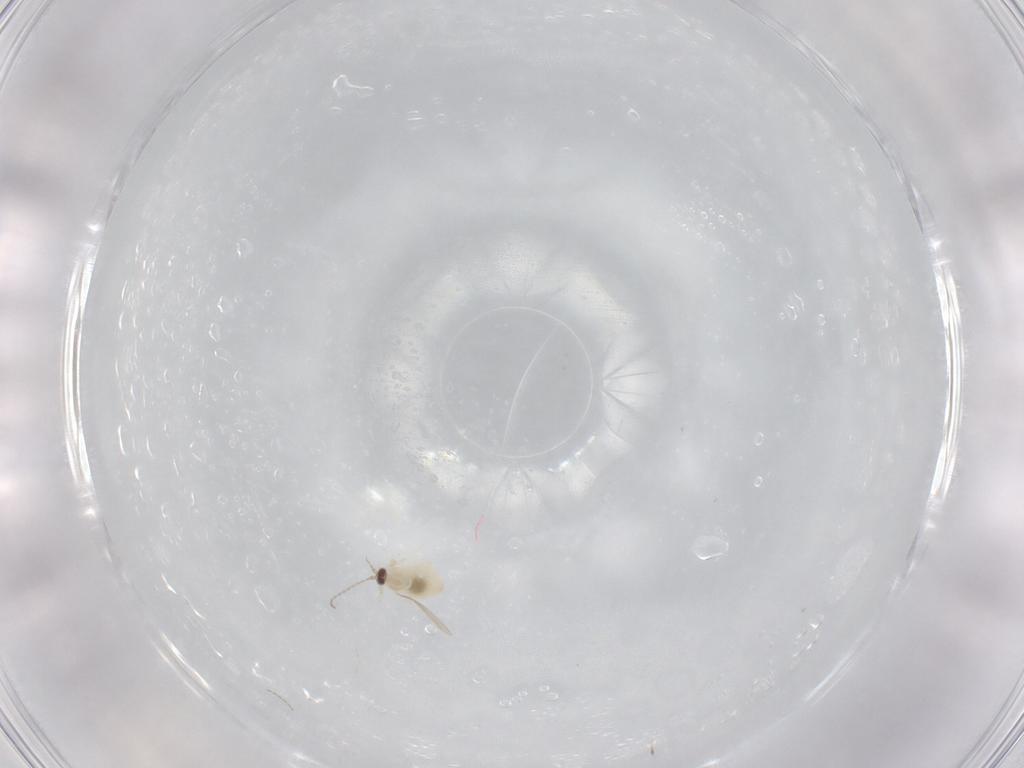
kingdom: Animalia
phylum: Arthropoda
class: Insecta
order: Diptera
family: Cecidomyiidae
